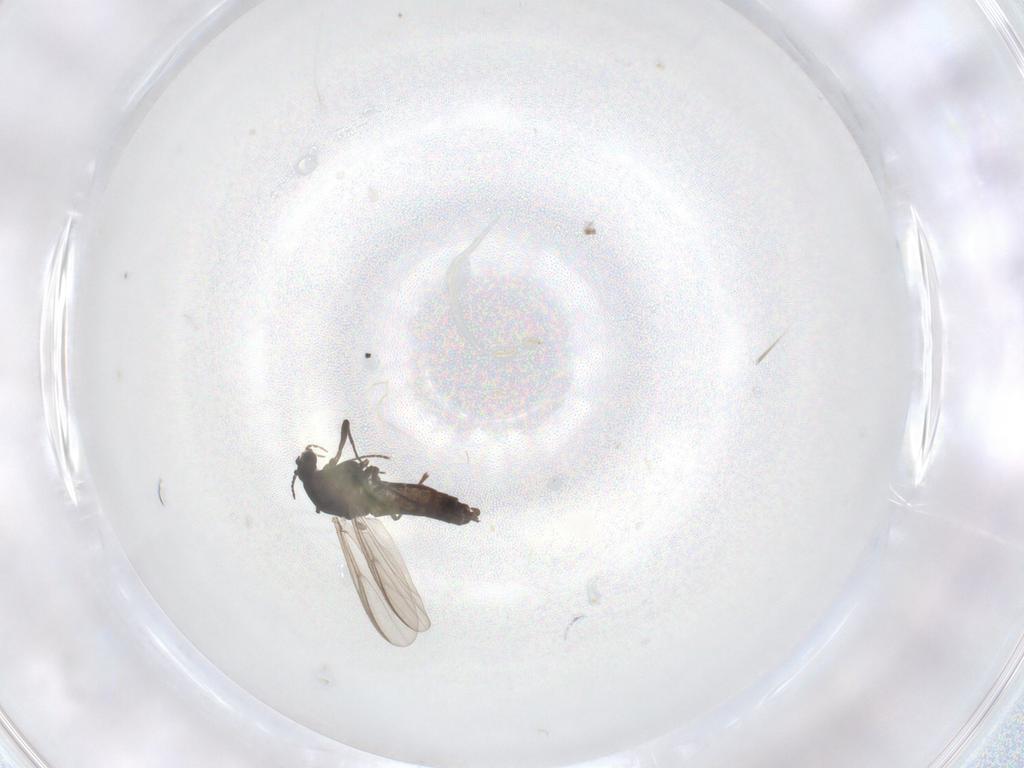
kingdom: Animalia
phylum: Arthropoda
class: Insecta
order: Diptera
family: Chironomidae
